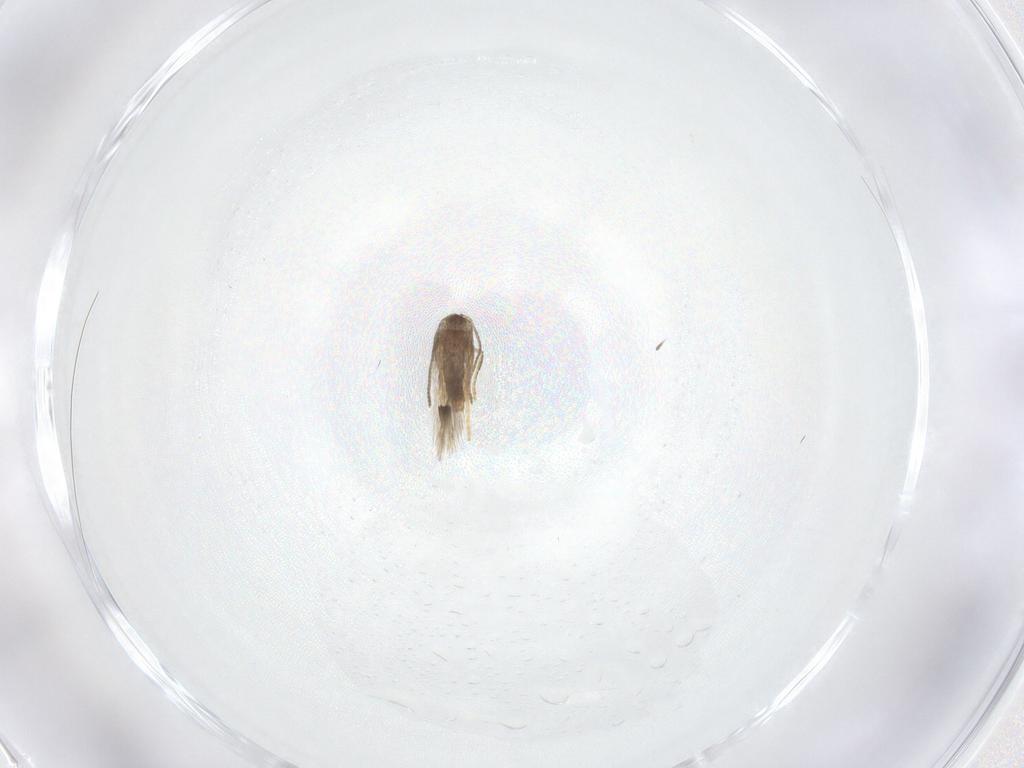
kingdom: Animalia
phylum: Arthropoda
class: Insecta
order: Lepidoptera
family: Nepticulidae
